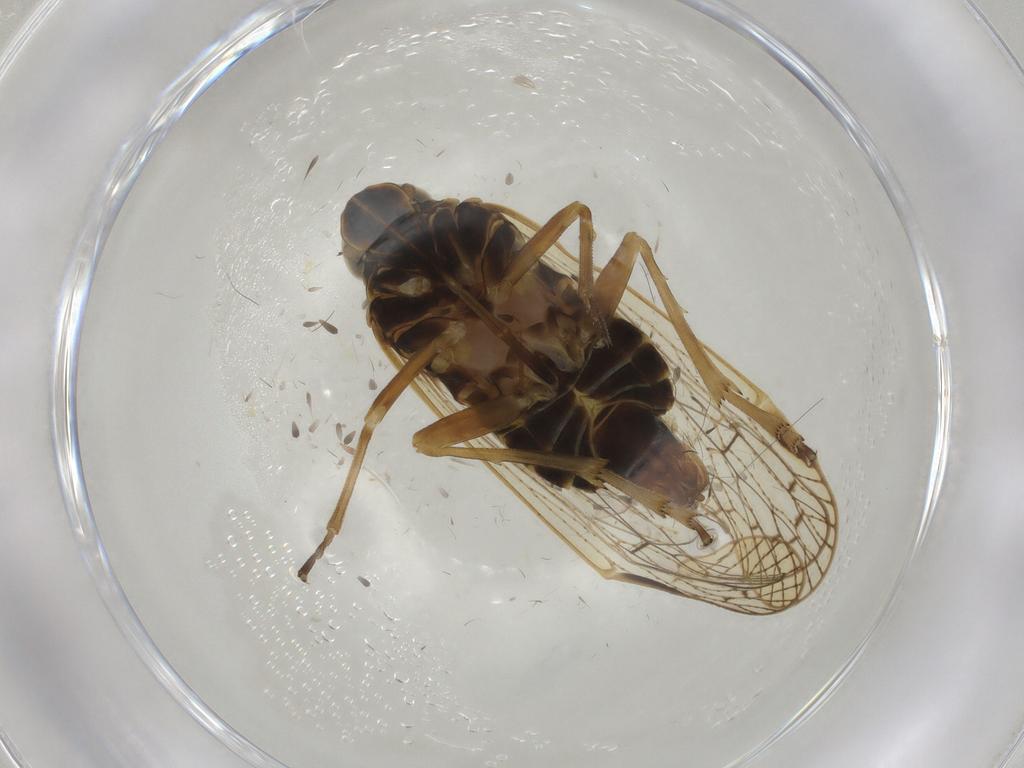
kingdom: Animalia
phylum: Arthropoda
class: Insecta
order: Hemiptera
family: Cixiidae
